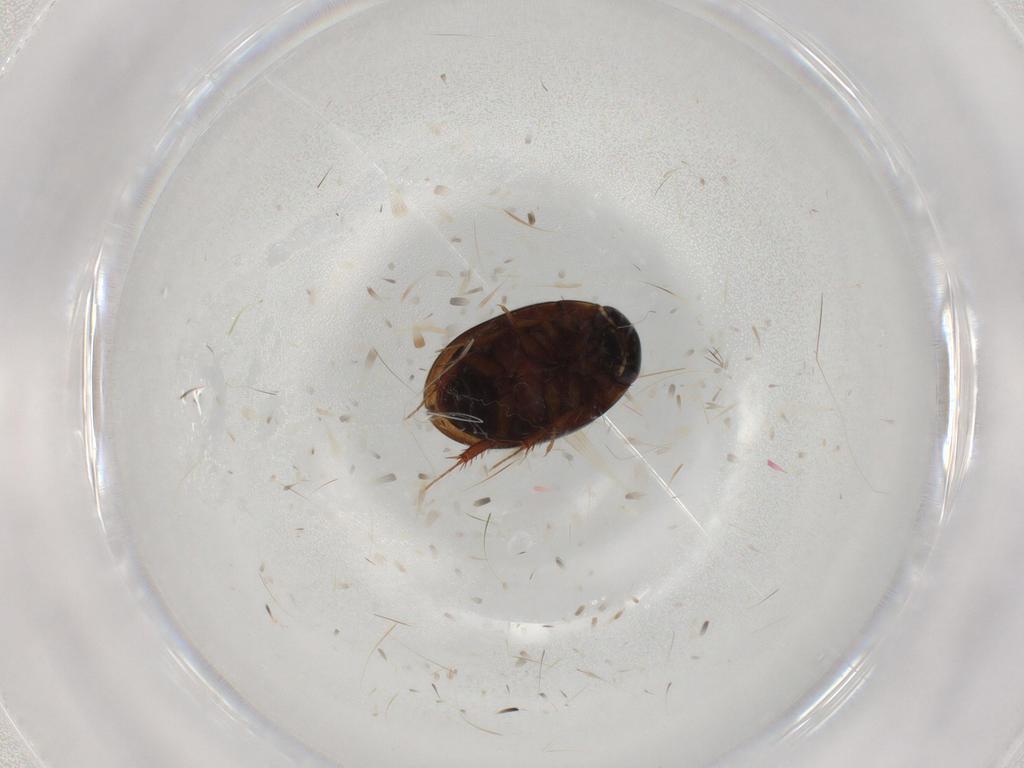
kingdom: Animalia
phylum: Arthropoda
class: Insecta
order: Coleoptera
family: Hydrophilidae
